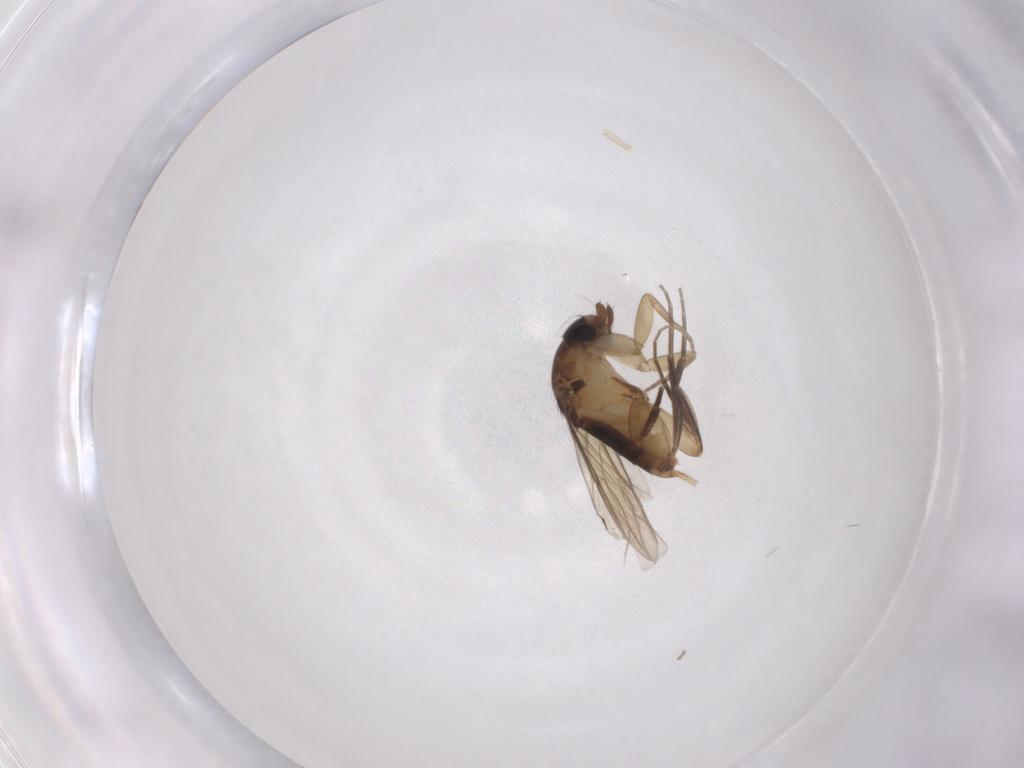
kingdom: Animalia
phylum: Arthropoda
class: Insecta
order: Diptera
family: Phoridae
